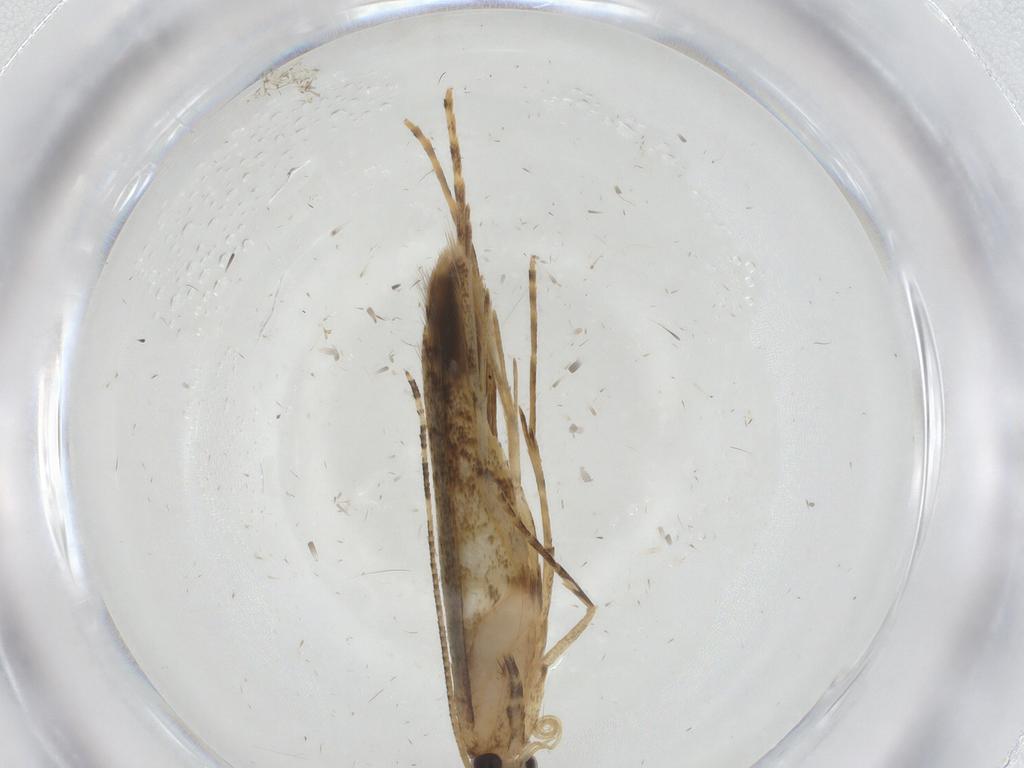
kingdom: Animalia
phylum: Arthropoda
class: Insecta
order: Lepidoptera
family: Batrachedridae
